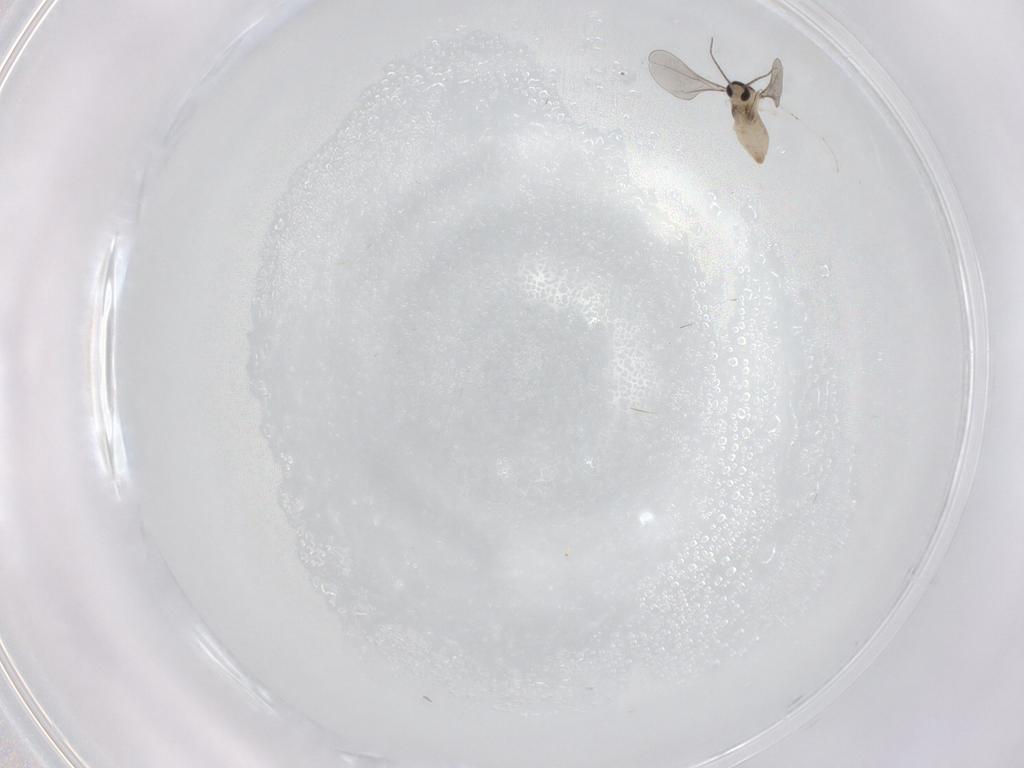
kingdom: Animalia
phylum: Arthropoda
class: Insecta
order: Diptera
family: Cecidomyiidae
